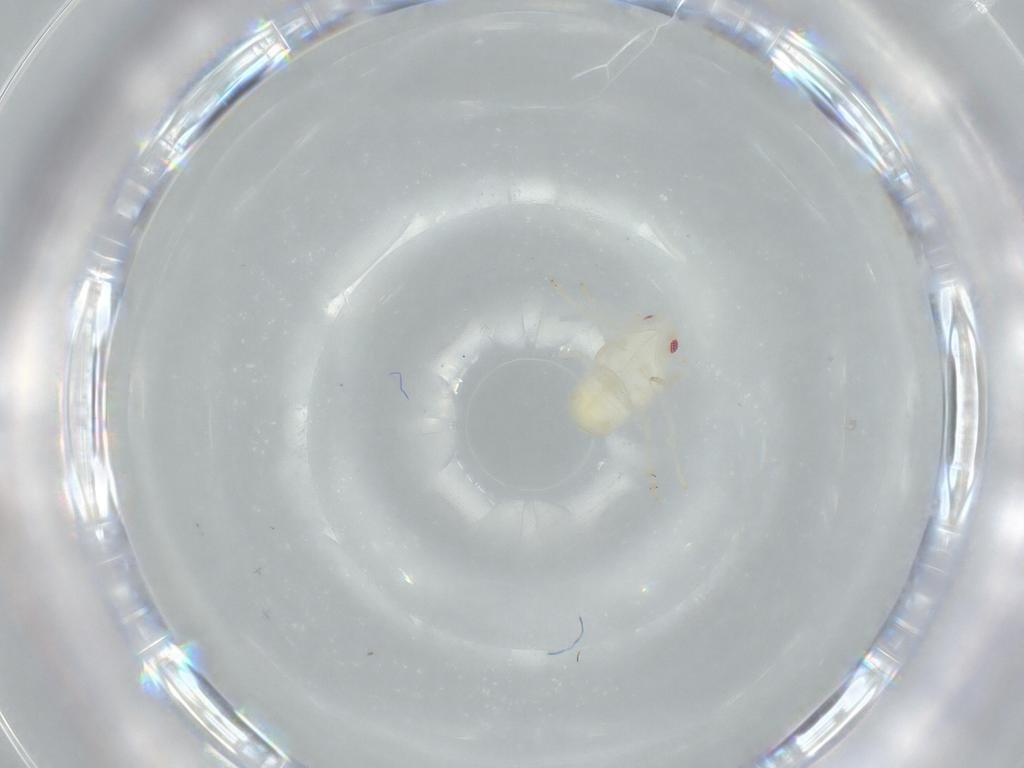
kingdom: Animalia
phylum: Arthropoda
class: Insecta
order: Hemiptera
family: Flatidae
